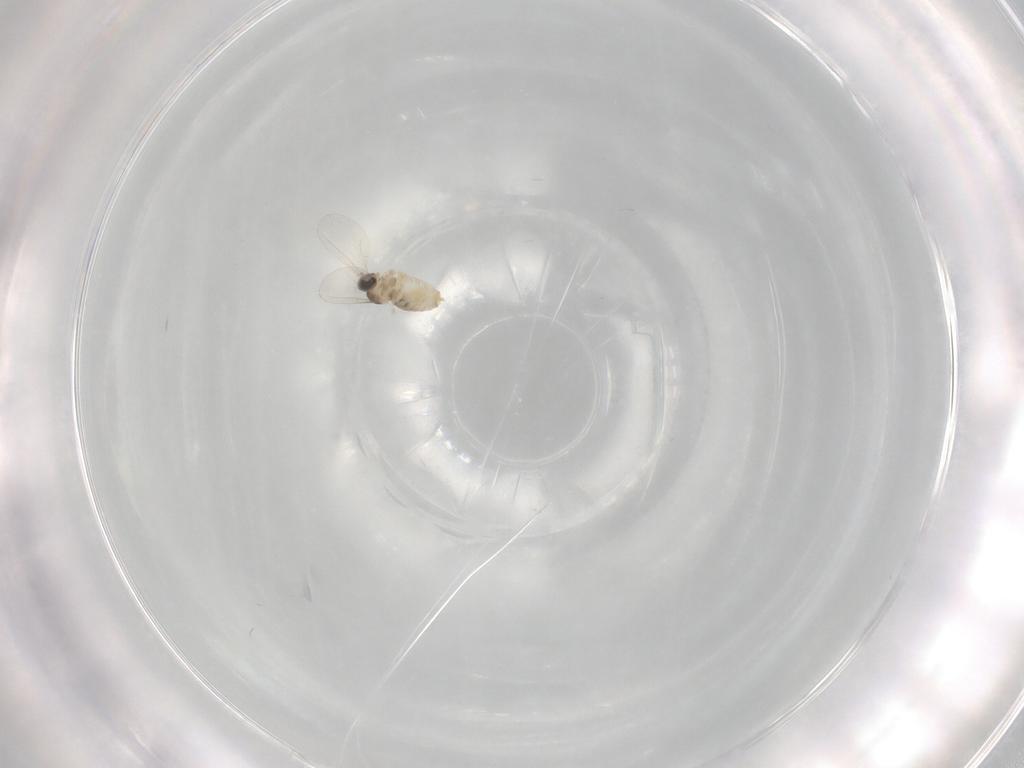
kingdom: Animalia
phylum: Arthropoda
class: Insecta
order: Diptera
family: Cecidomyiidae
